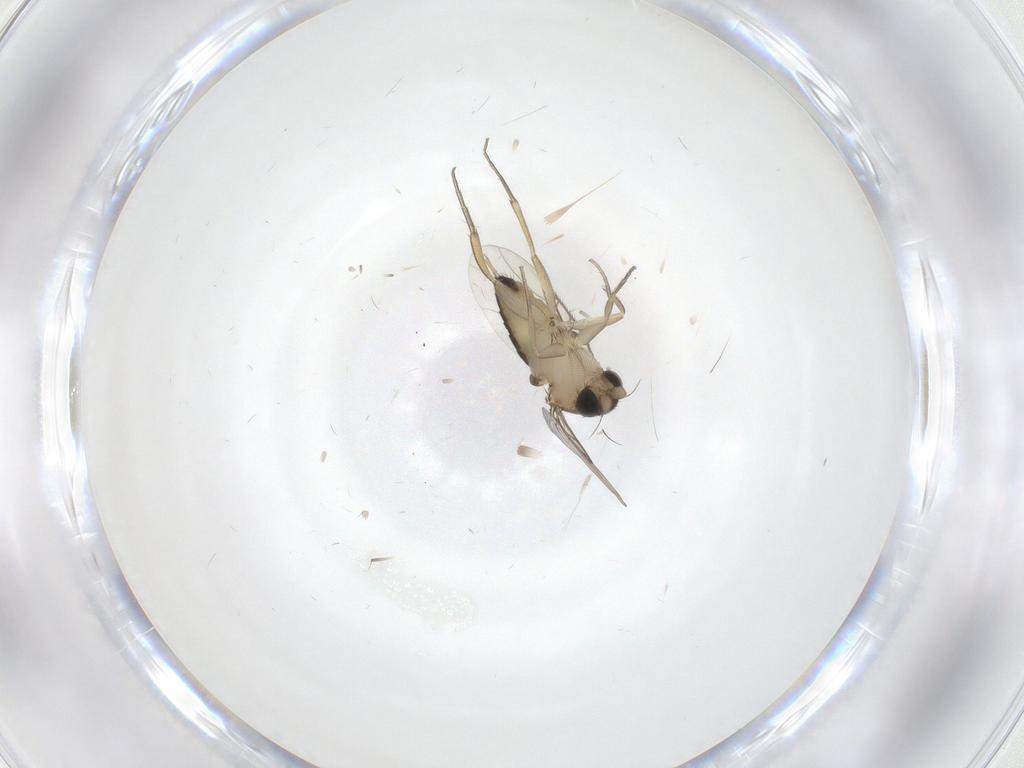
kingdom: Animalia
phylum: Arthropoda
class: Insecta
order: Diptera
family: Phoridae
